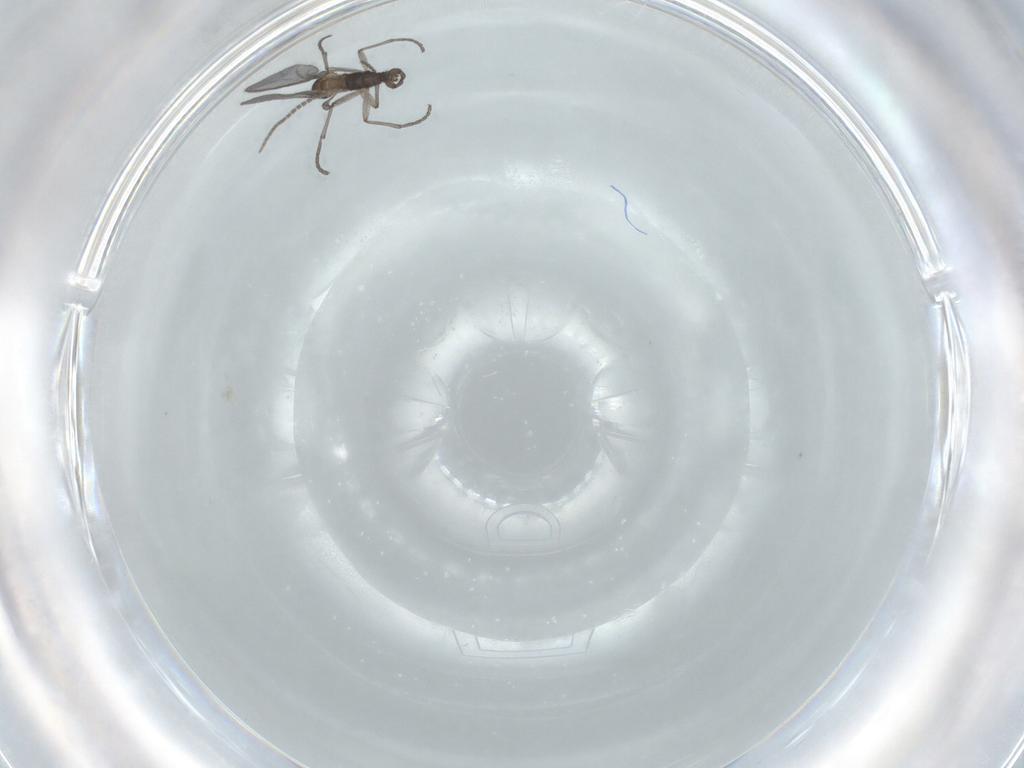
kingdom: Animalia
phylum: Arthropoda
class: Insecta
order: Diptera
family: Sciaridae
